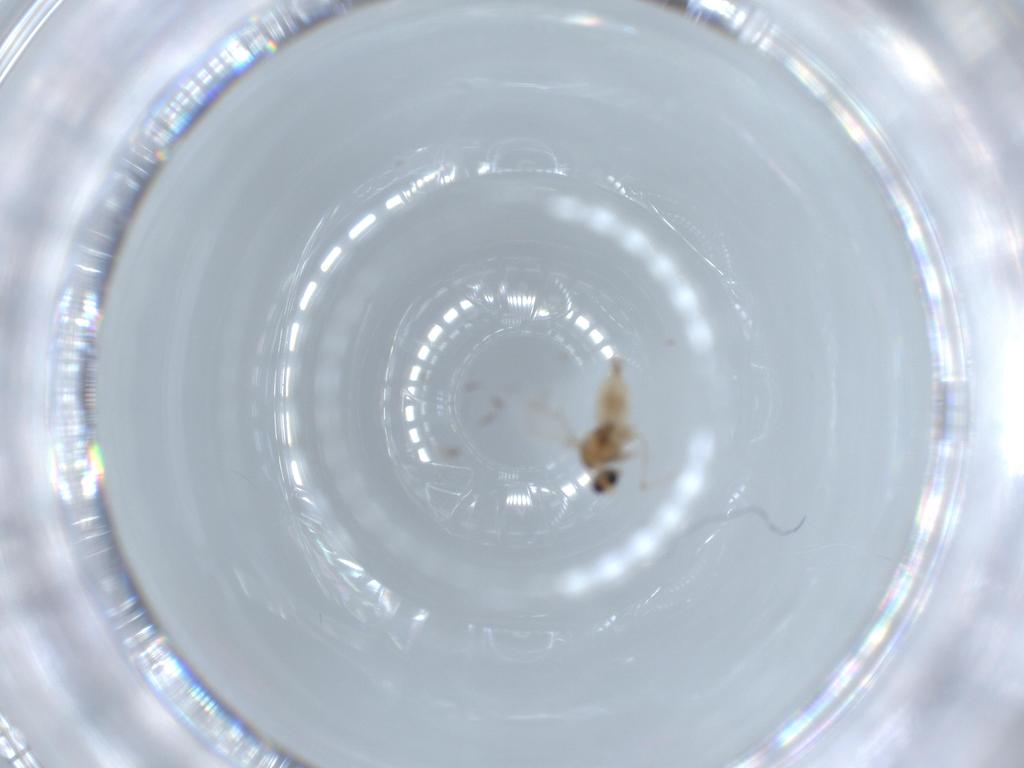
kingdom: Animalia
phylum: Arthropoda
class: Insecta
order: Diptera
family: Cecidomyiidae
